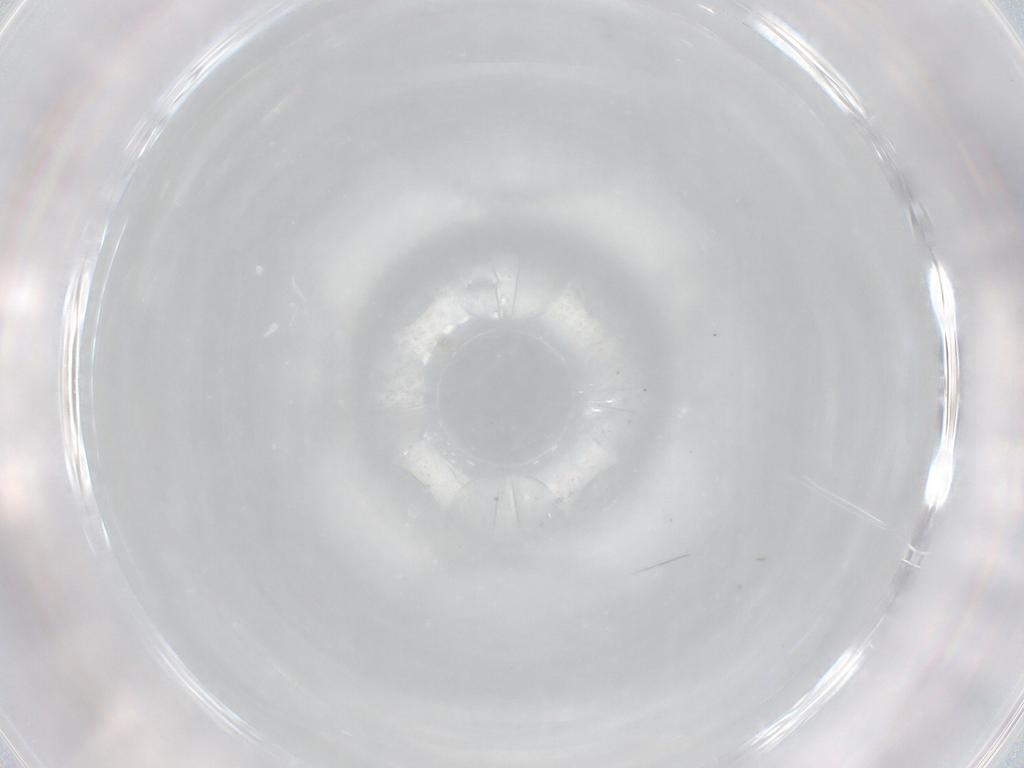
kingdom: Animalia
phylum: Arthropoda
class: Insecta
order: Diptera
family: Cecidomyiidae
